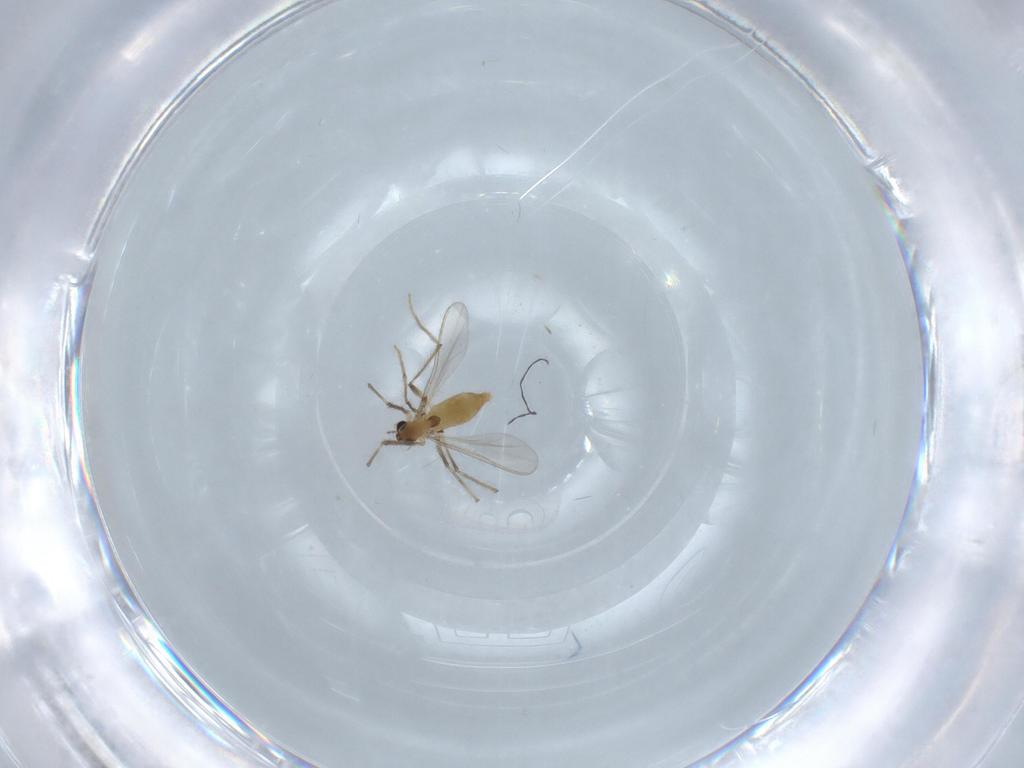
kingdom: Animalia
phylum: Arthropoda
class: Insecta
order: Diptera
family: Chironomidae
